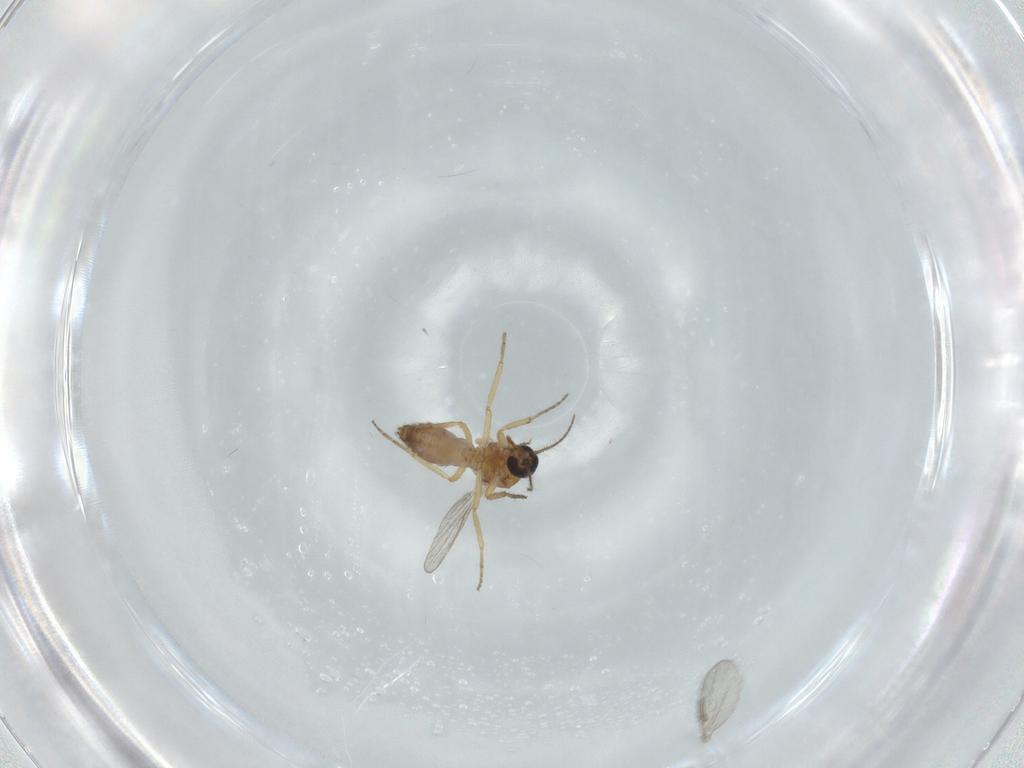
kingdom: Animalia
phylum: Arthropoda
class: Insecta
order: Diptera
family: Ceratopogonidae
